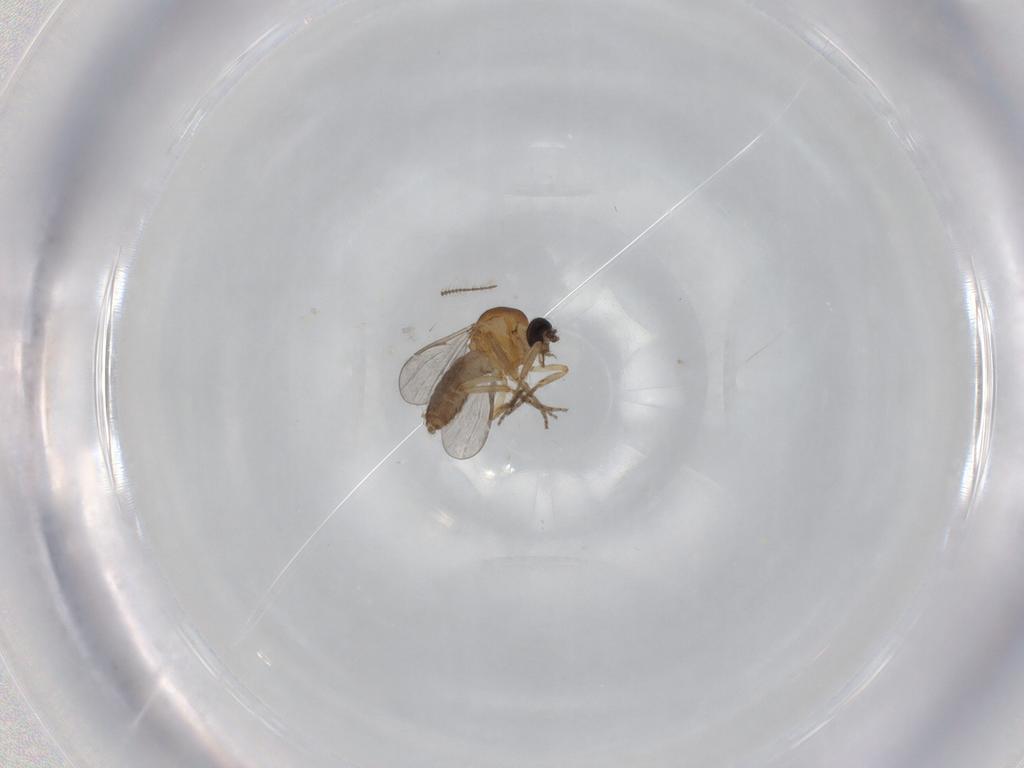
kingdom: Animalia
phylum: Arthropoda
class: Insecta
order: Diptera
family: Ceratopogonidae
